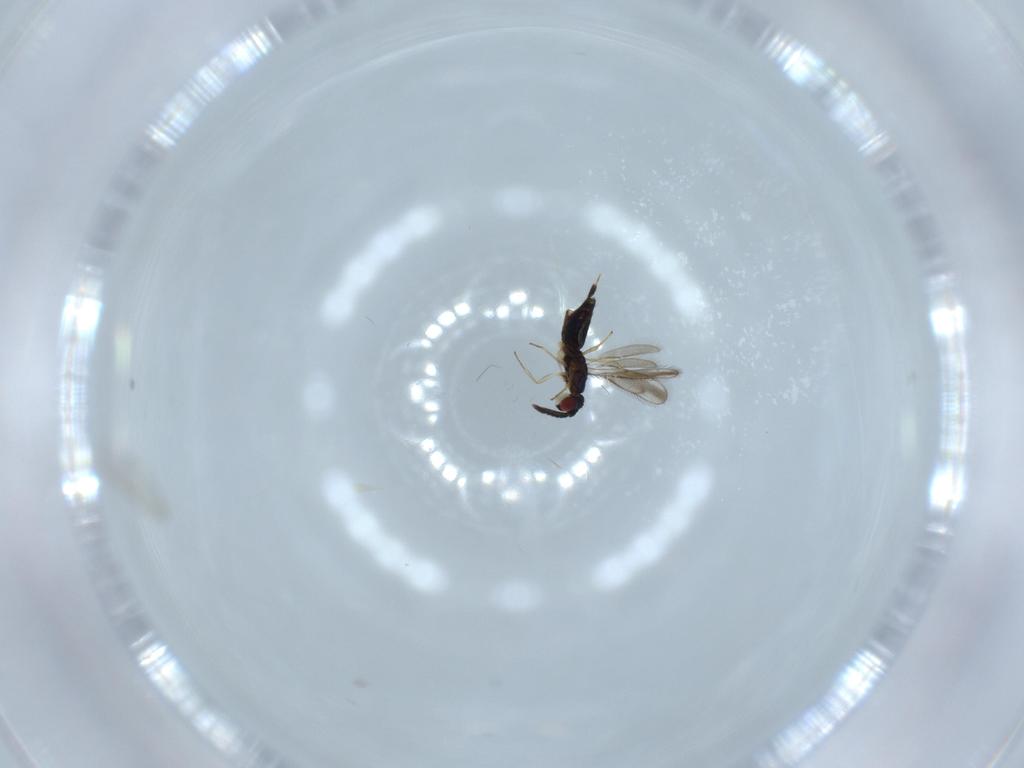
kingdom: Animalia
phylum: Arthropoda
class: Insecta
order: Hymenoptera
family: Pteromalidae
